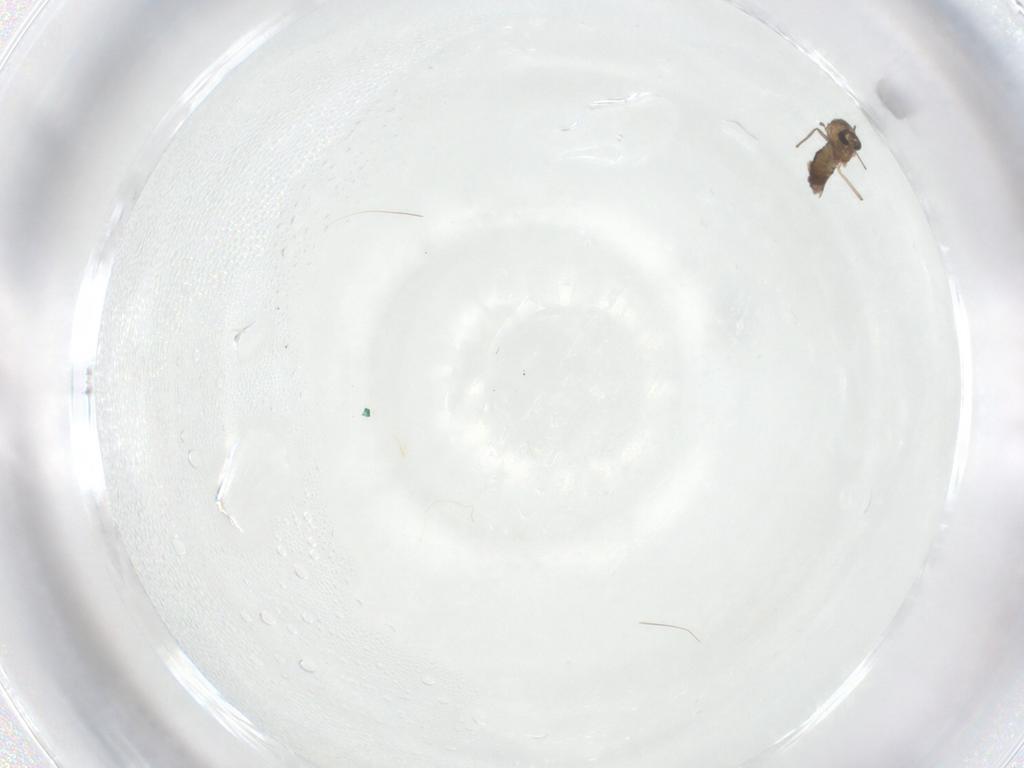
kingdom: Animalia
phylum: Arthropoda
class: Insecta
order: Diptera
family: Chironomidae
